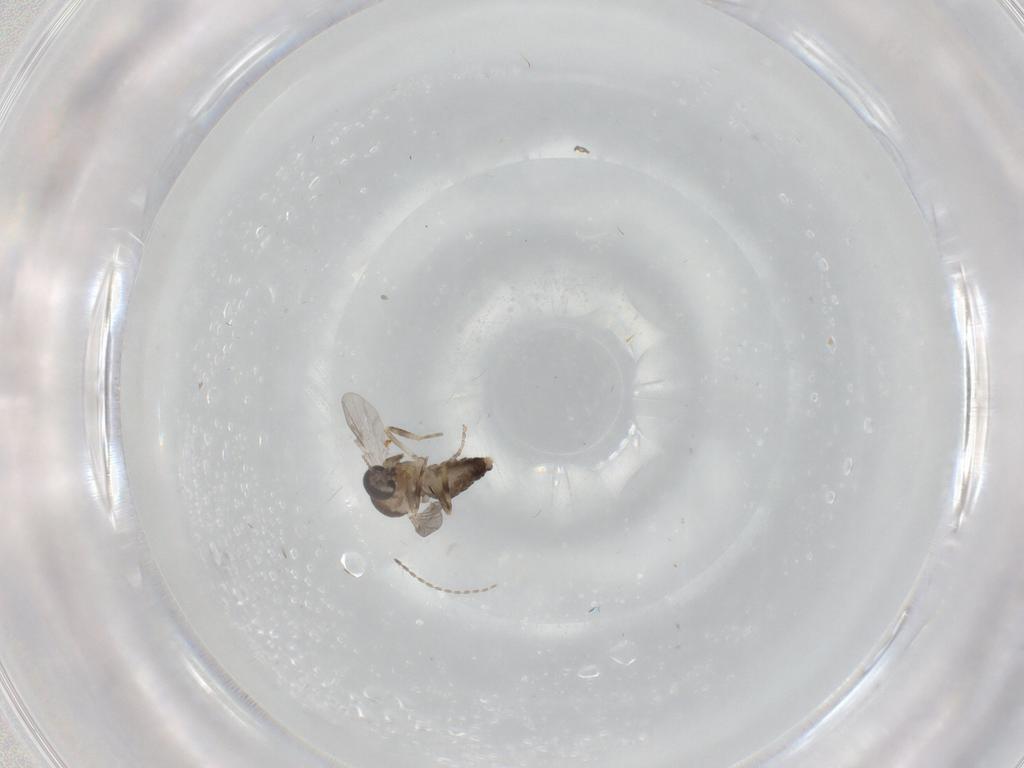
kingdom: Animalia
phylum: Arthropoda
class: Insecta
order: Diptera
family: Ceratopogonidae
